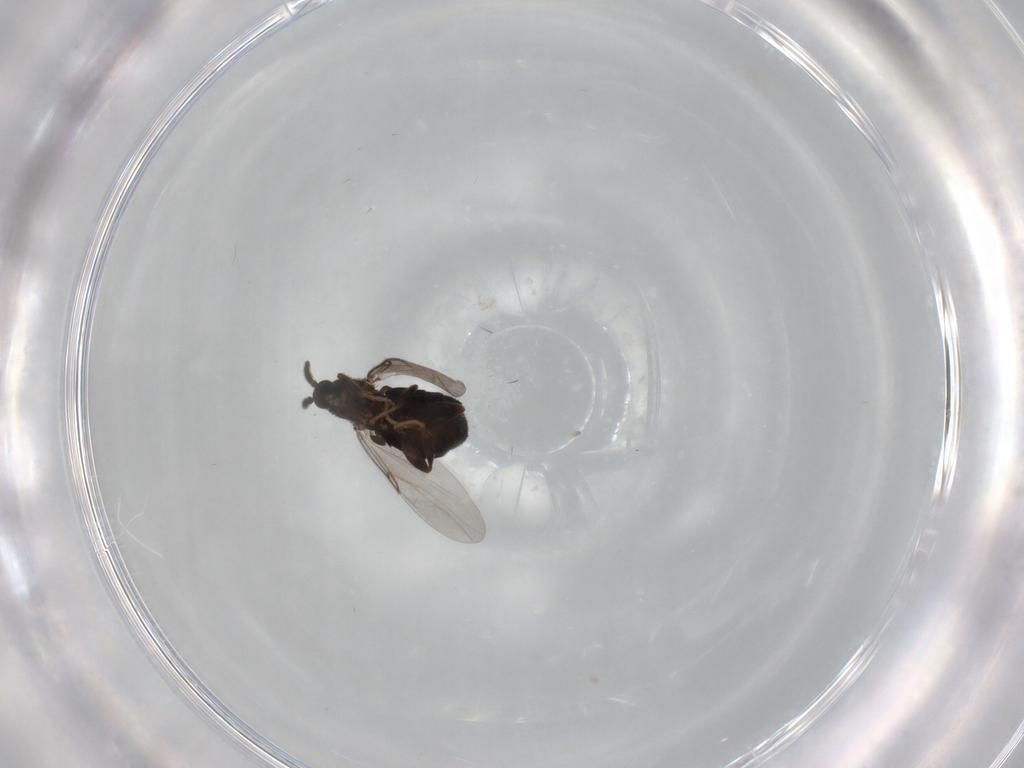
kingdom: Animalia
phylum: Arthropoda
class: Insecta
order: Diptera
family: Scatopsidae
